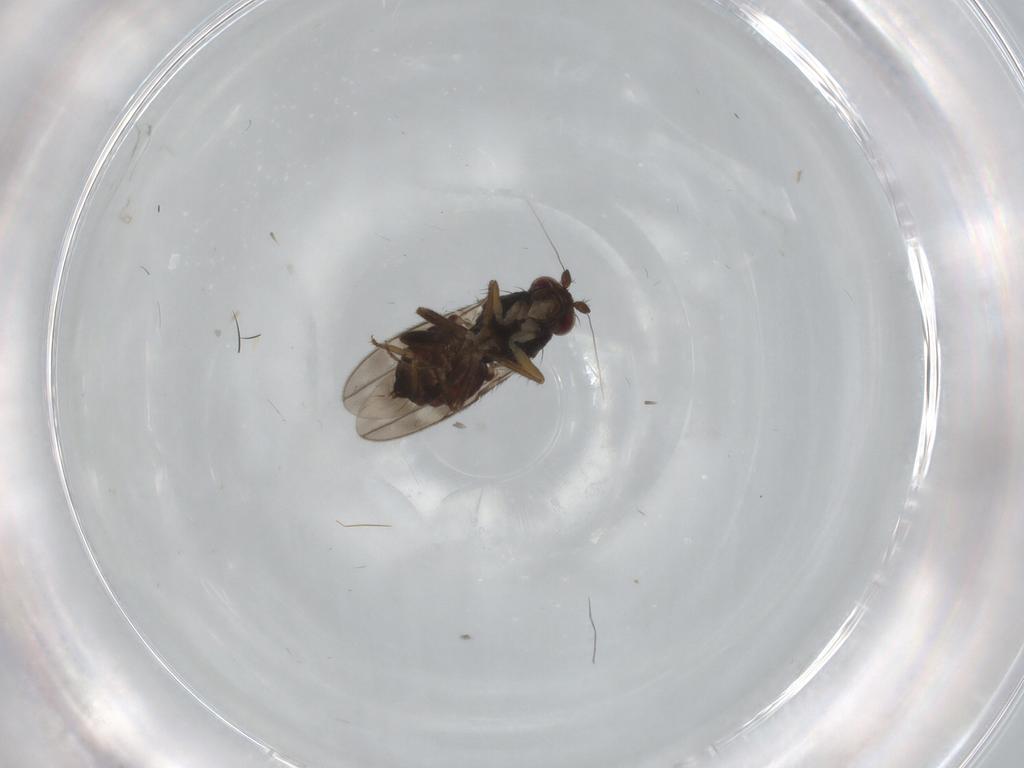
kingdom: Animalia
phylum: Arthropoda
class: Insecta
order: Diptera
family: Sphaeroceridae
